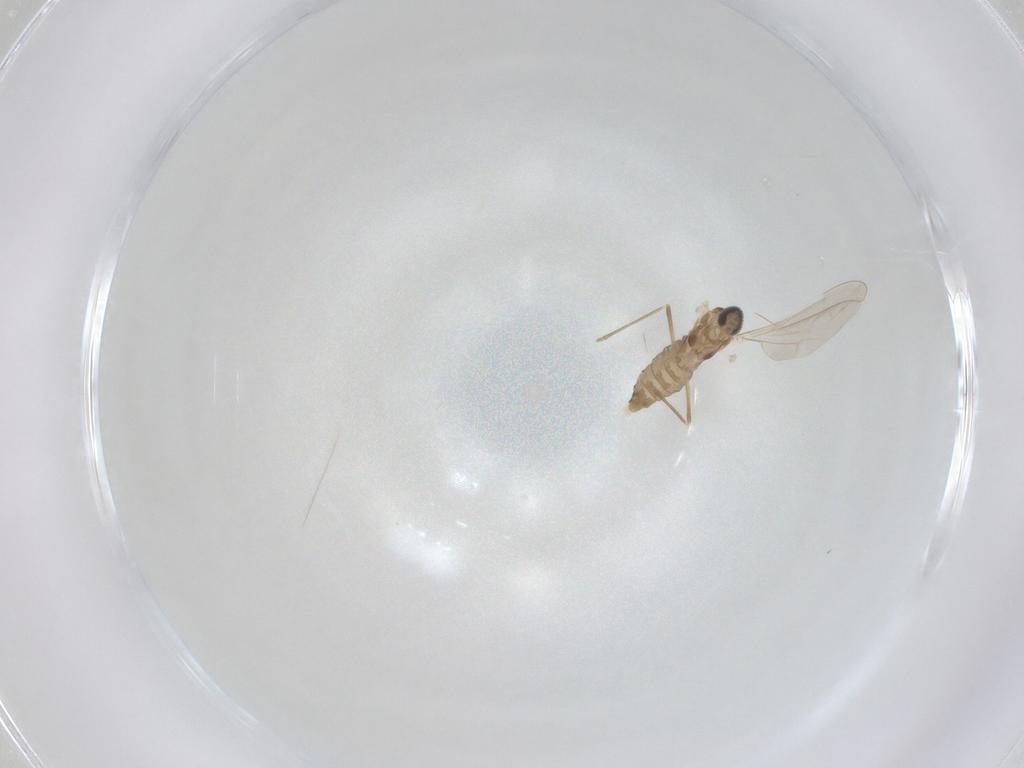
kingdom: Animalia
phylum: Arthropoda
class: Insecta
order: Diptera
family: Cecidomyiidae
